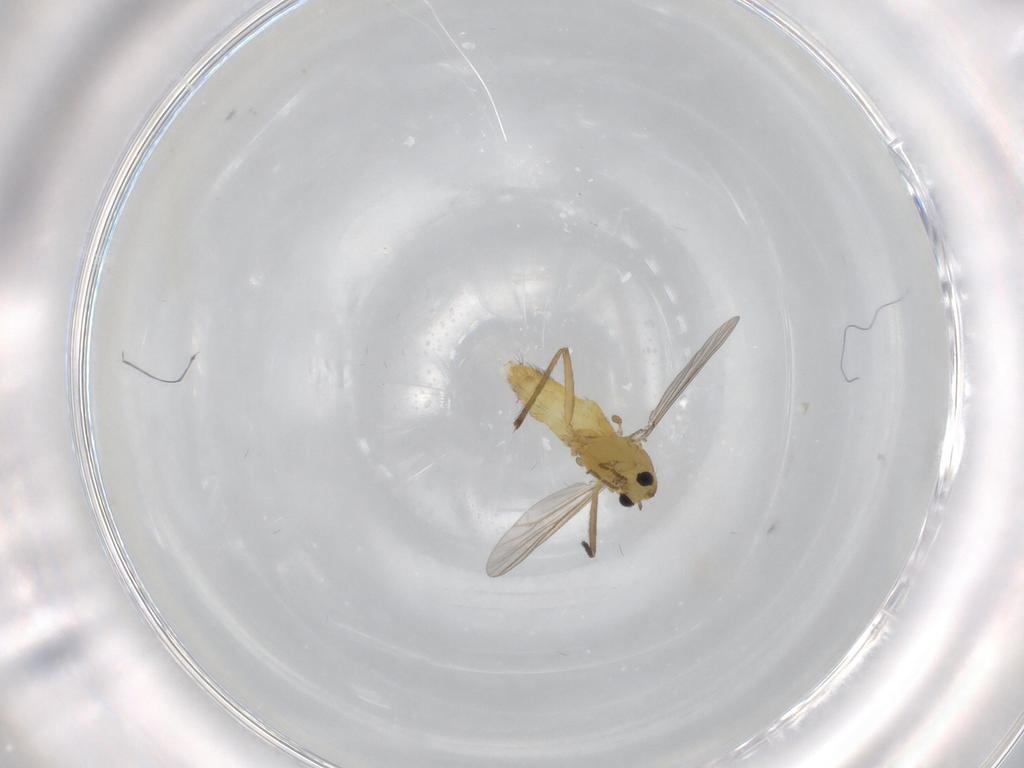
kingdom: Animalia
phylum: Arthropoda
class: Insecta
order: Diptera
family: Chironomidae
